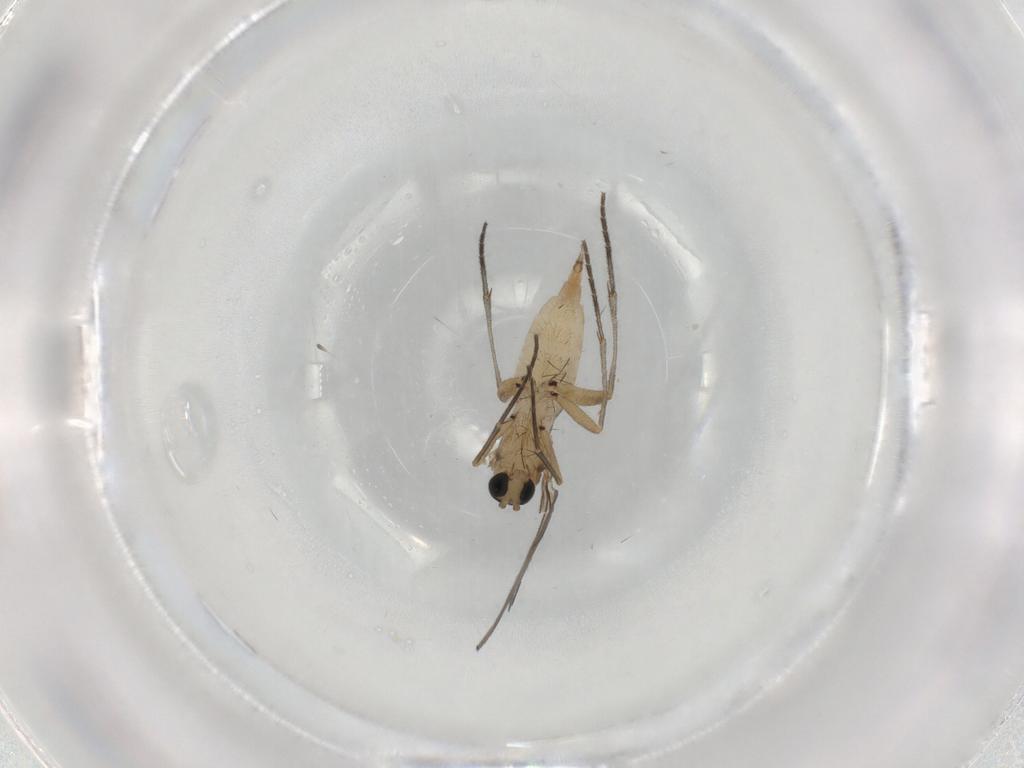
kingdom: Animalia
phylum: Arthropoda
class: Insecta
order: Diptera
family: Sciaridae
